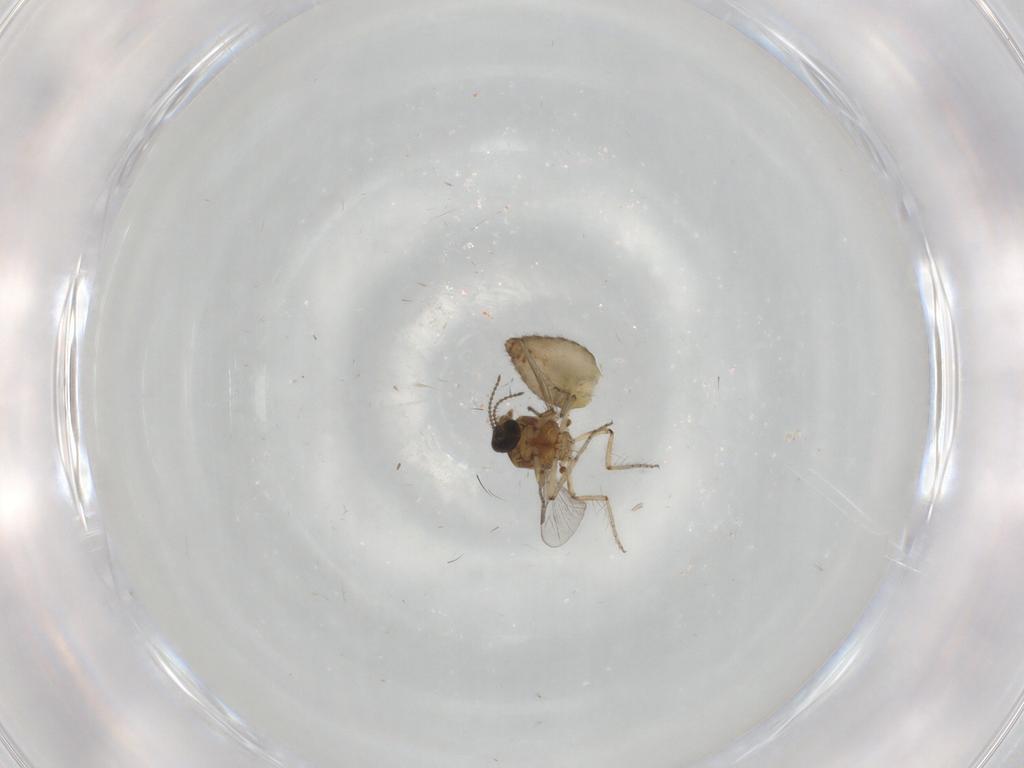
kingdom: Animalia
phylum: Arthropoda
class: Insecta
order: Diptera
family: Ceratopogonidae
